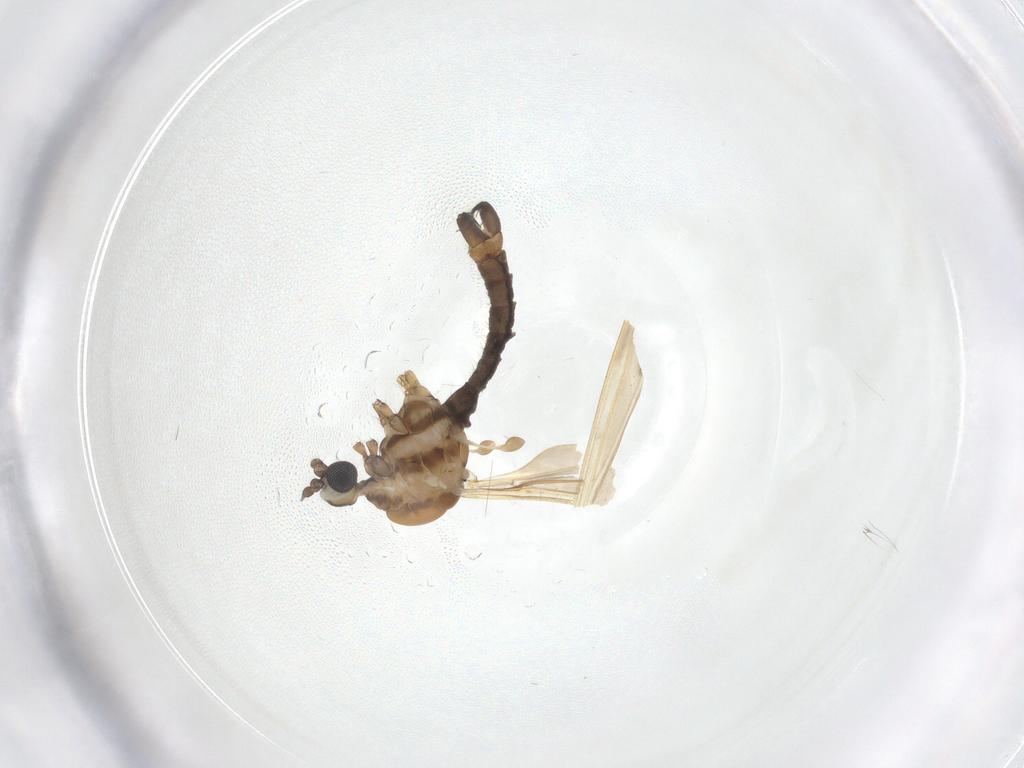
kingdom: Animalia
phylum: Arthropoda
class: Insecta
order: Diptera
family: Limoniidae
